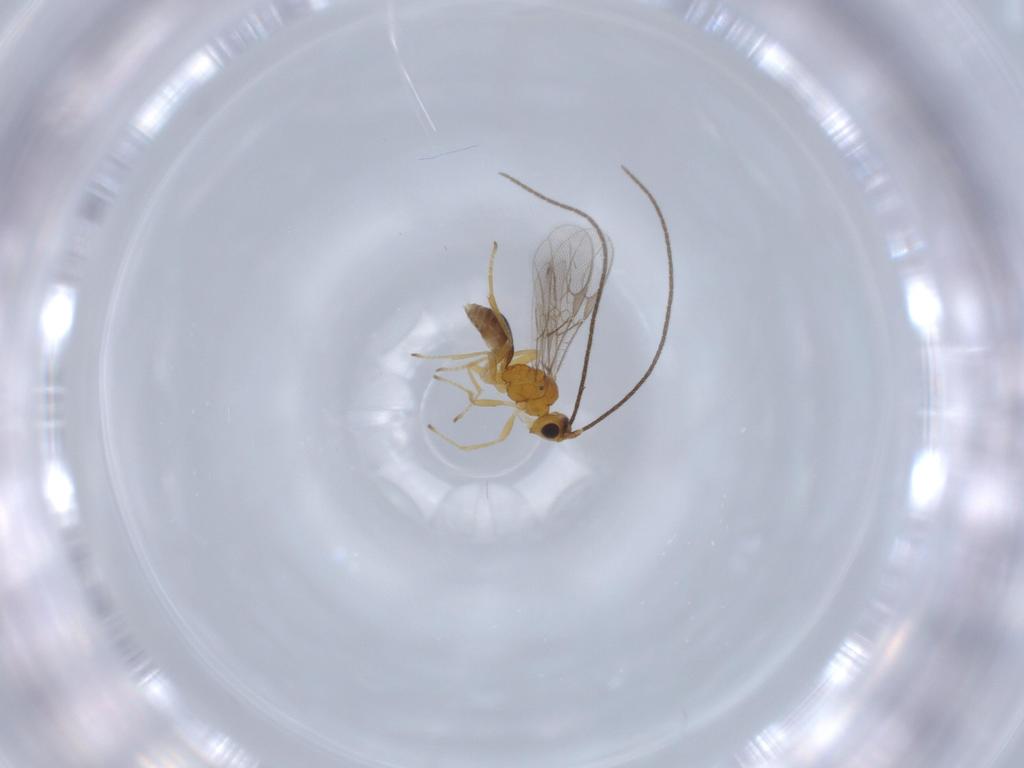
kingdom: Animalia
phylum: Arthropoda
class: Insecta
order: Hymenoptera
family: Braconidae
